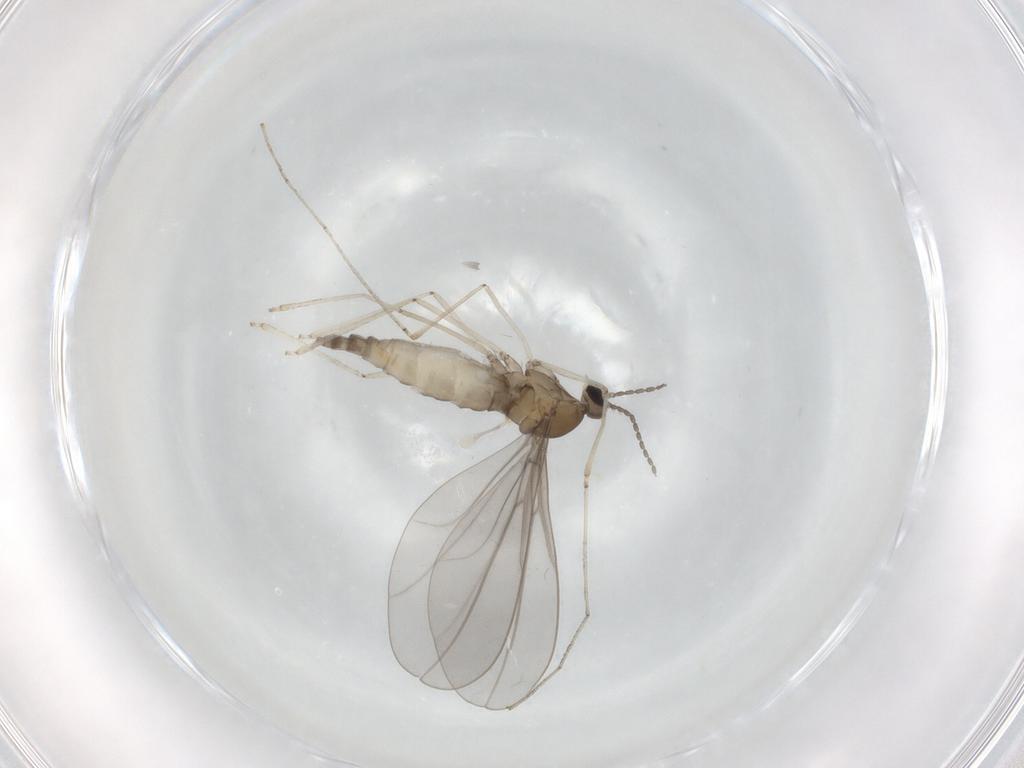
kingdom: Animalia
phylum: Arthropoda
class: Insecta
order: Diptera
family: Cecidomyiidae
